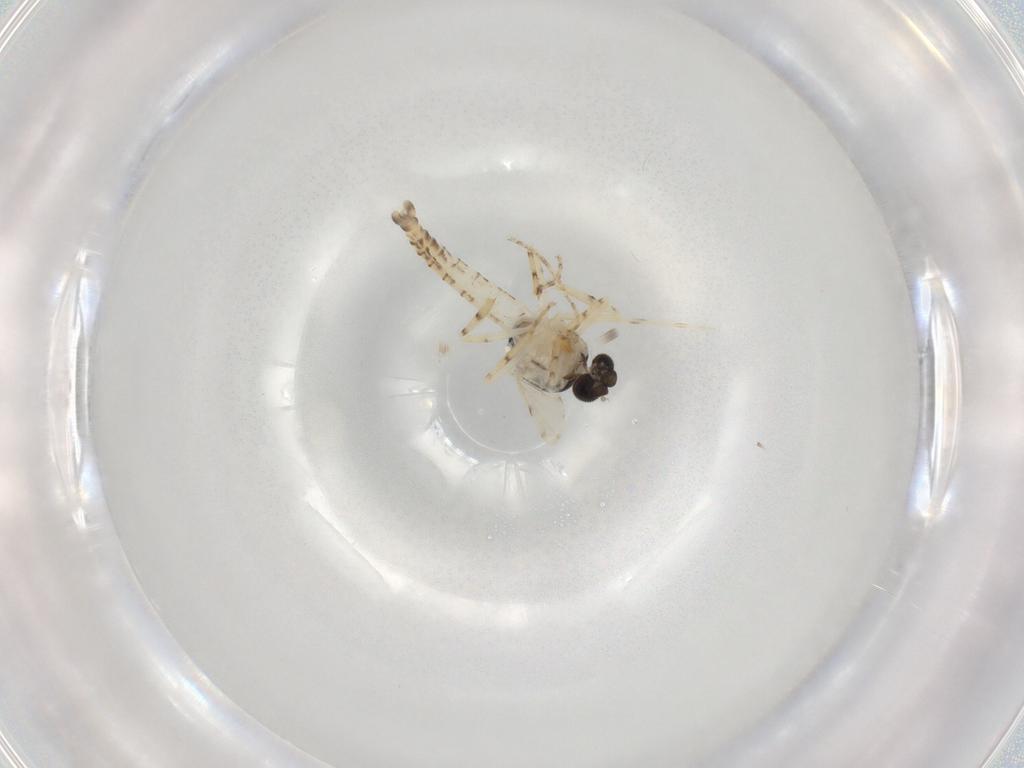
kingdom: Animalia
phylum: Arthropoda
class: Insecta
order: Diptera
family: Ceratopogonidae
